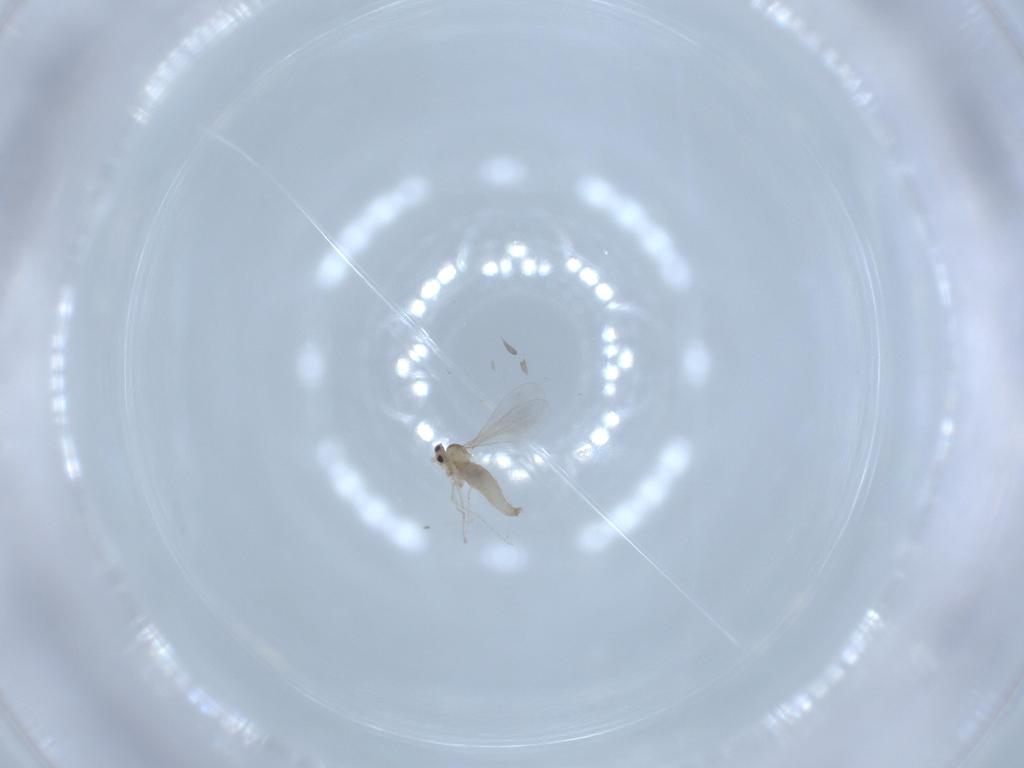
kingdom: Animalia
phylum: Arthropoda
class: Insecta
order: Diptera
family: Cecidomyiidae
